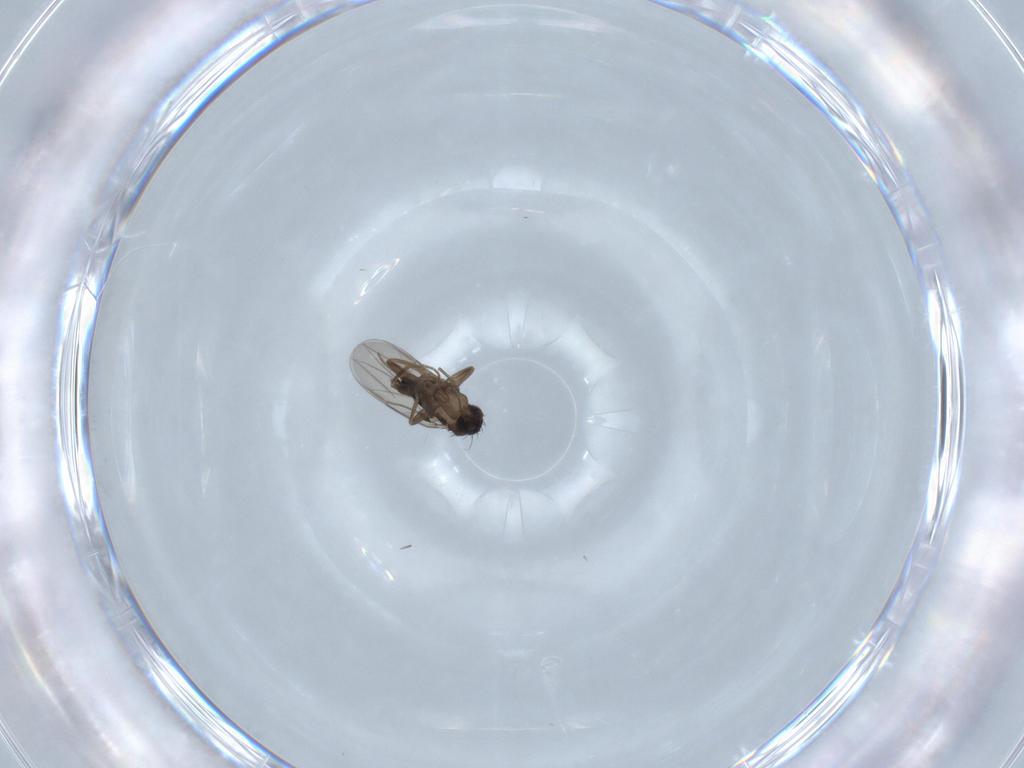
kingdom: Animalia
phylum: Arthropoda
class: Insecta
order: Diptera
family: Phoridae
